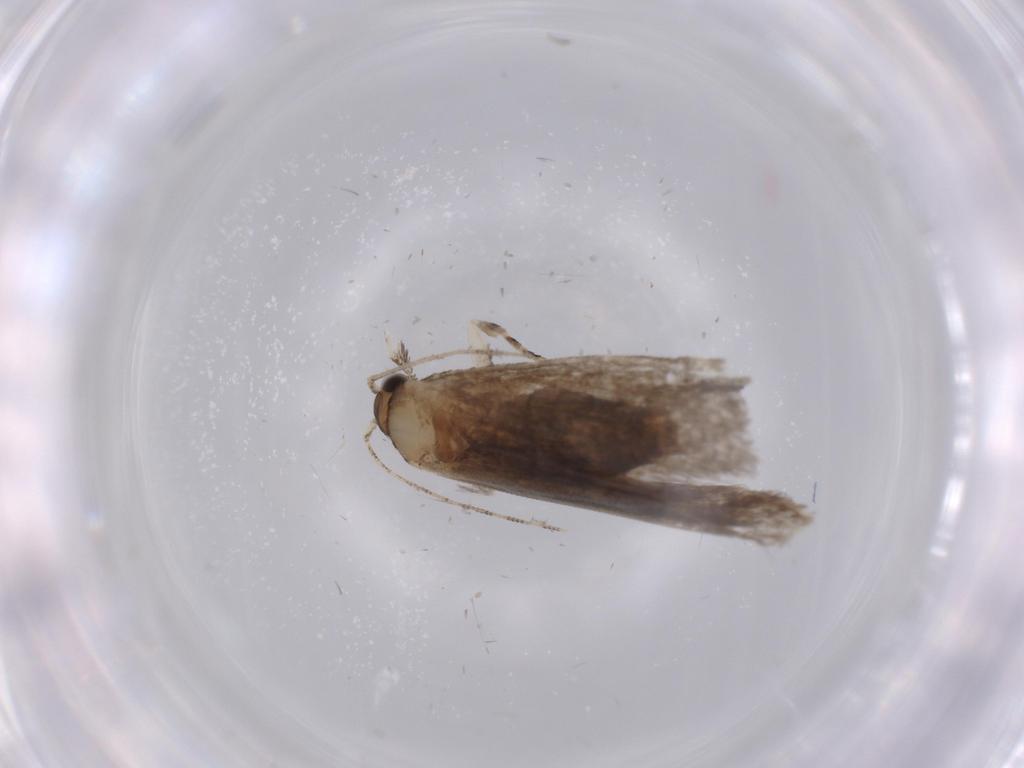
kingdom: Animalia
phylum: Arthropoda
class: Insecta
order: Lepidoptera
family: Tineidae
